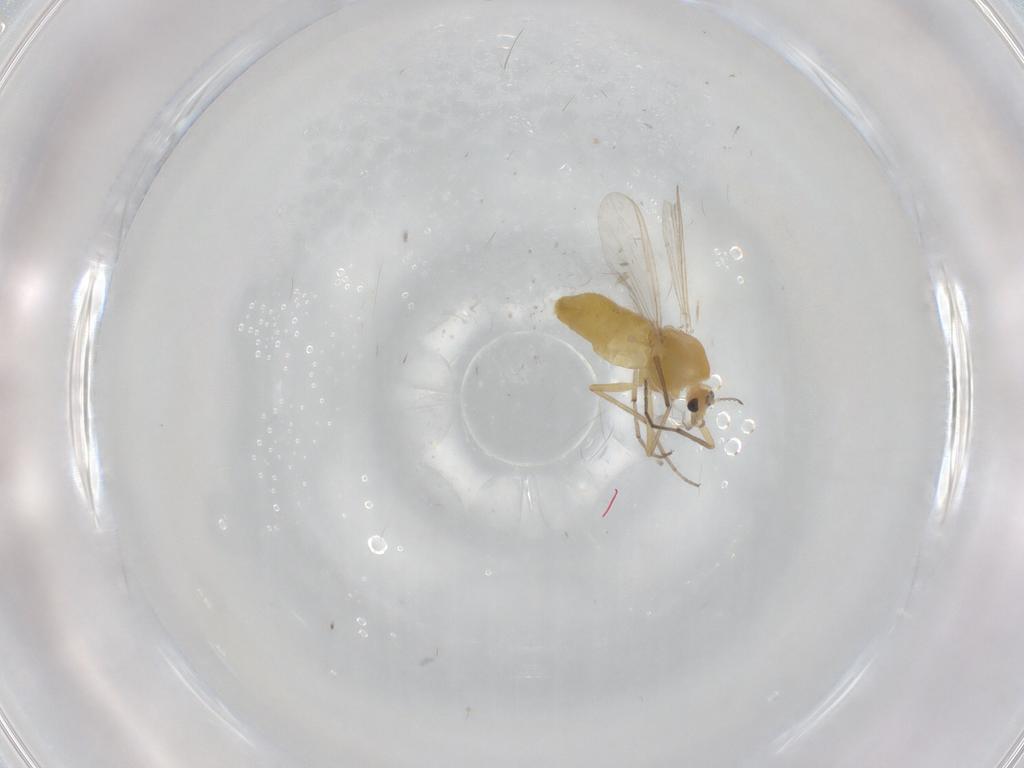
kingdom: Animalia
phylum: Arthropoda
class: Insecta
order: Diptera
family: Chironomidae
